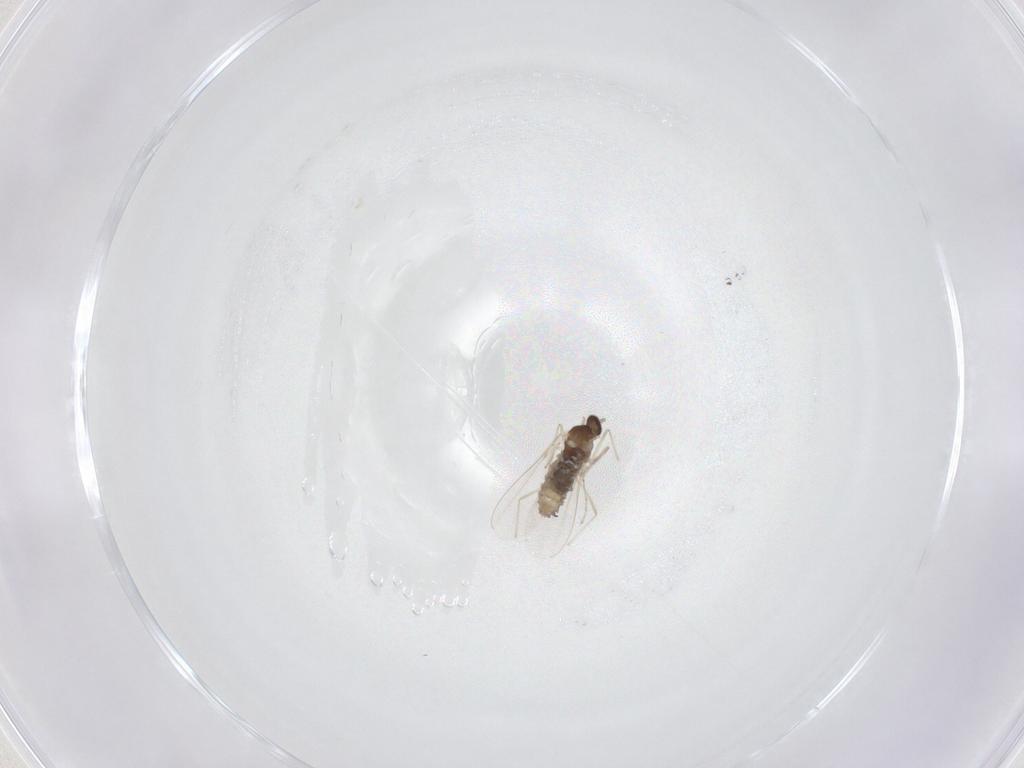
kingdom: Animalia
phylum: Arthropoda
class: Insecta
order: Diptera
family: Cecidomyiidae
